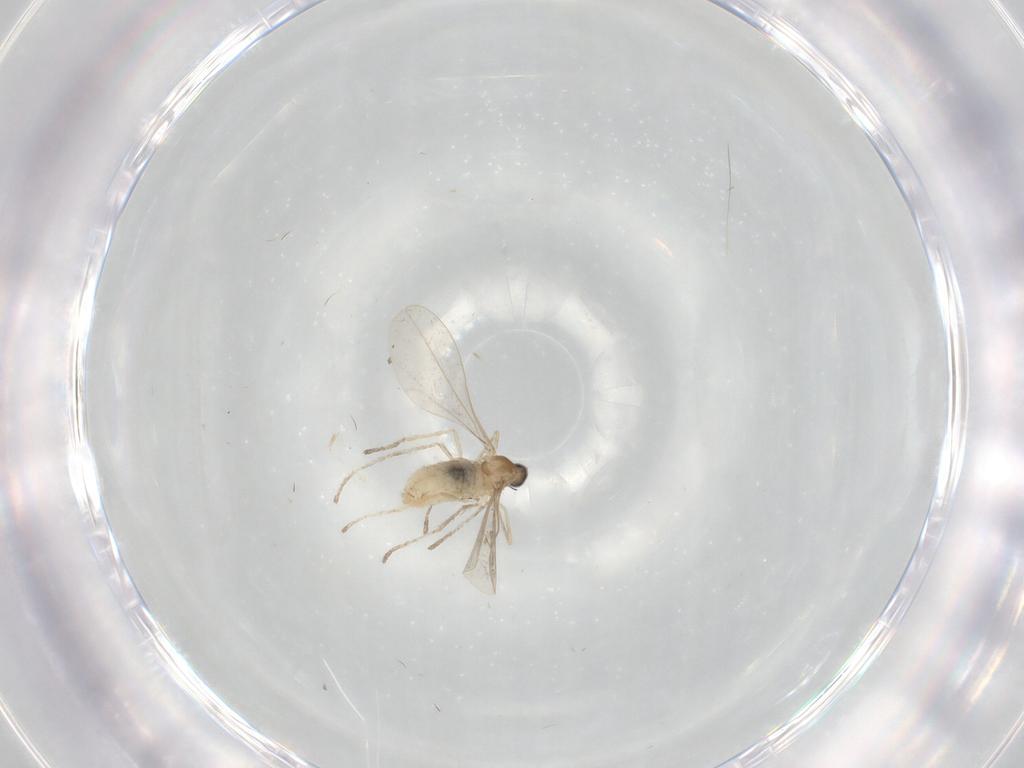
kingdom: Animalia
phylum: Arthropoda
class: Insecta
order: Diptera
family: Cecidomyiidae
